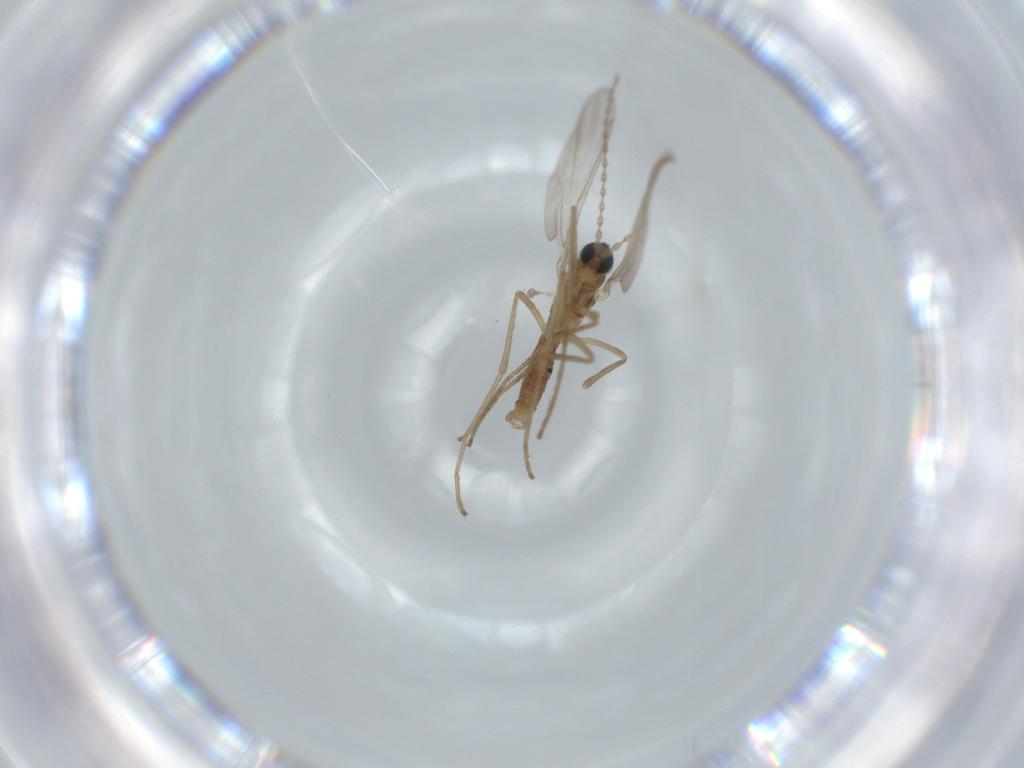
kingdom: Animalia
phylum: Arthropoda
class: Insecta
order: Diptera
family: Cecidomyiidae
